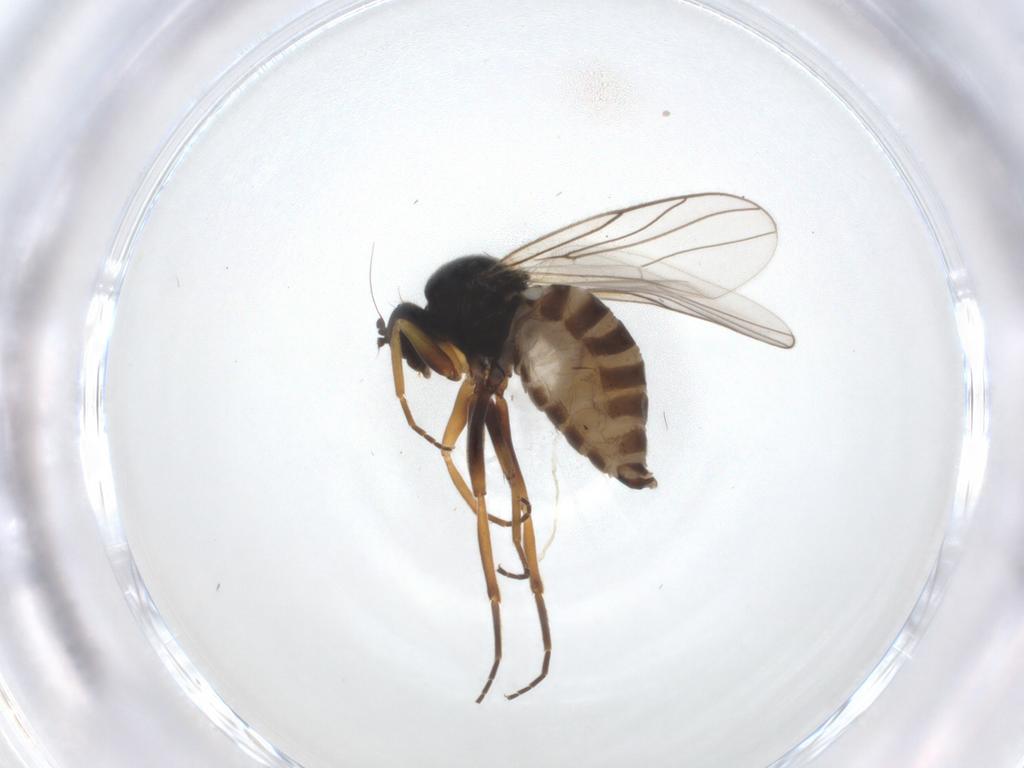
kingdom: Animalia
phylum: Arthropoda
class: Insecta
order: Diptera
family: Hybotidae
